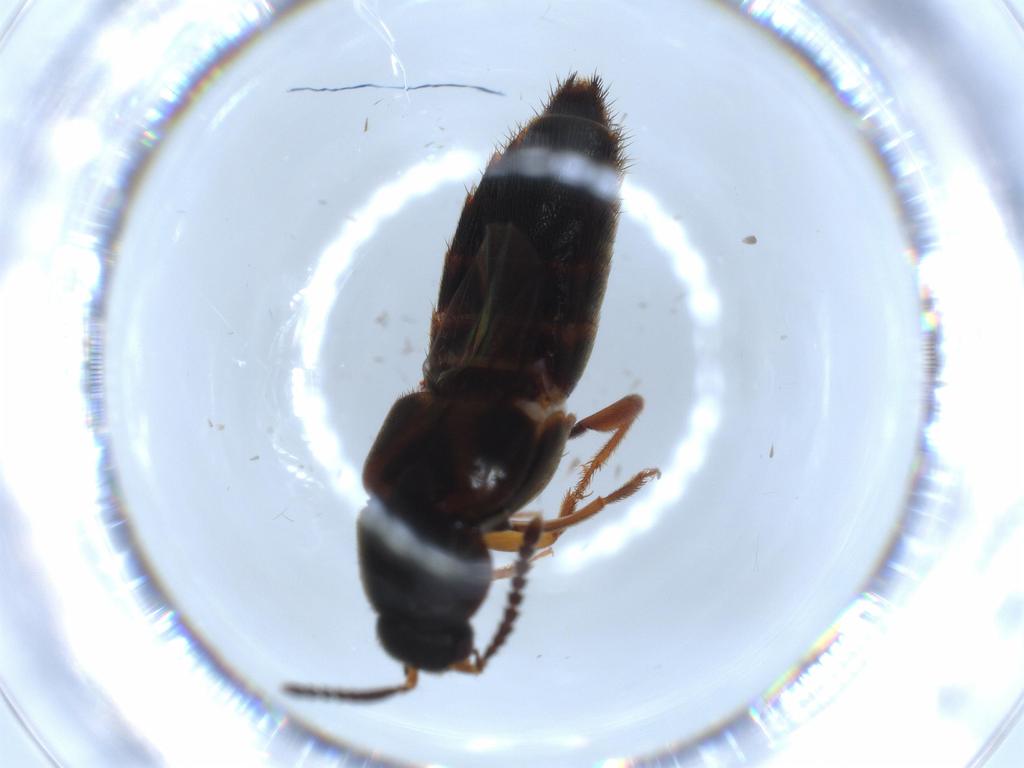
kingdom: Animalia
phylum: Arthropoda
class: Insecta
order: Coleoptera
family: Staphylinidae
